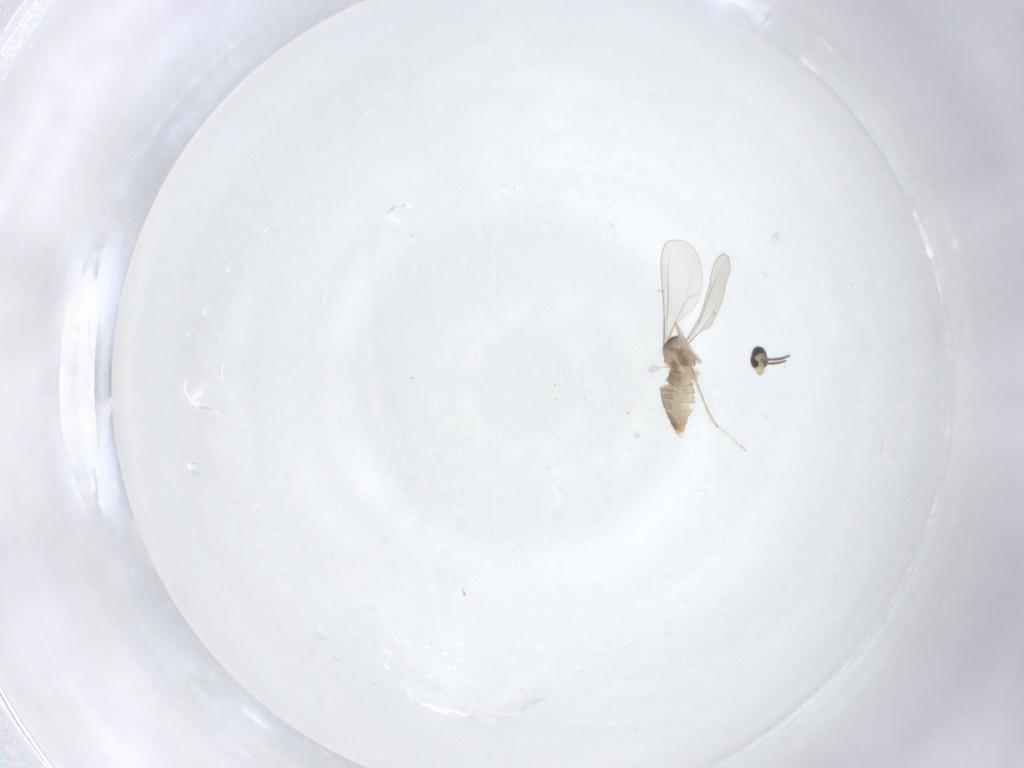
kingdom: Animalia
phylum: Arthropoda
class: Insecta
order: Diptera
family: Cecidomyiidae
